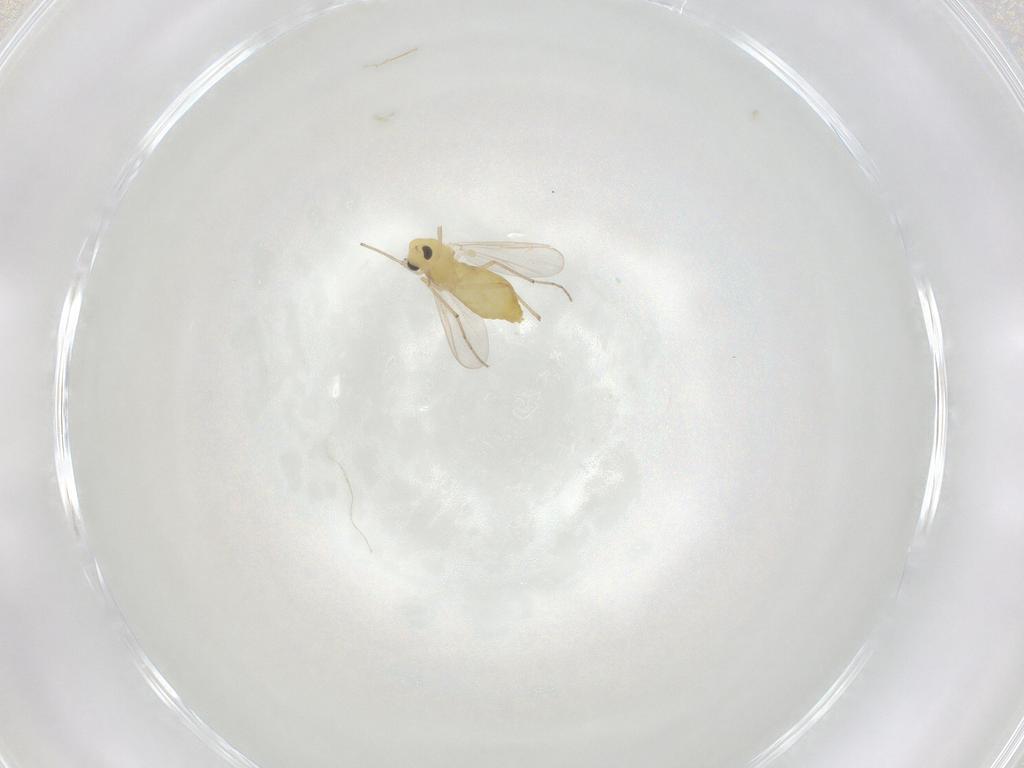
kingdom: Animalia
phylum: Arthropoda
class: Insecta
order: Diptera
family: Chironomidae
